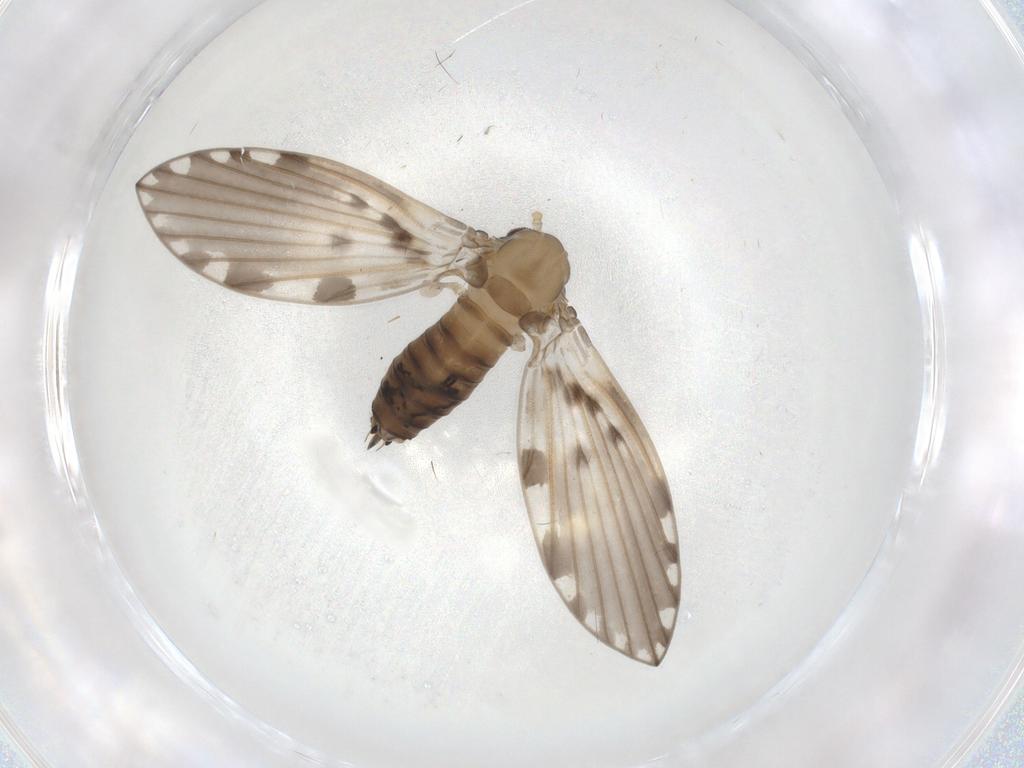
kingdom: Animalia
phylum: Arthropoda
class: Insecta
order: Diptera
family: Psychodidae
